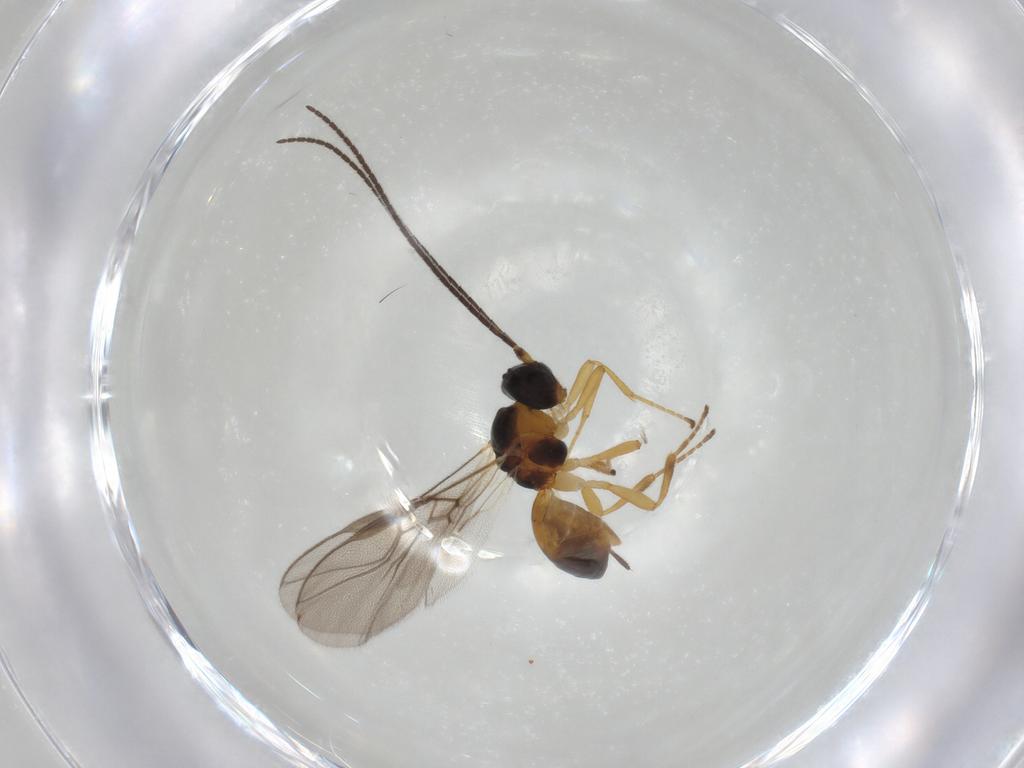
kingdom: Animalia
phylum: Arthropoda
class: Insecta
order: Hymenoptera
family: Braconidae
